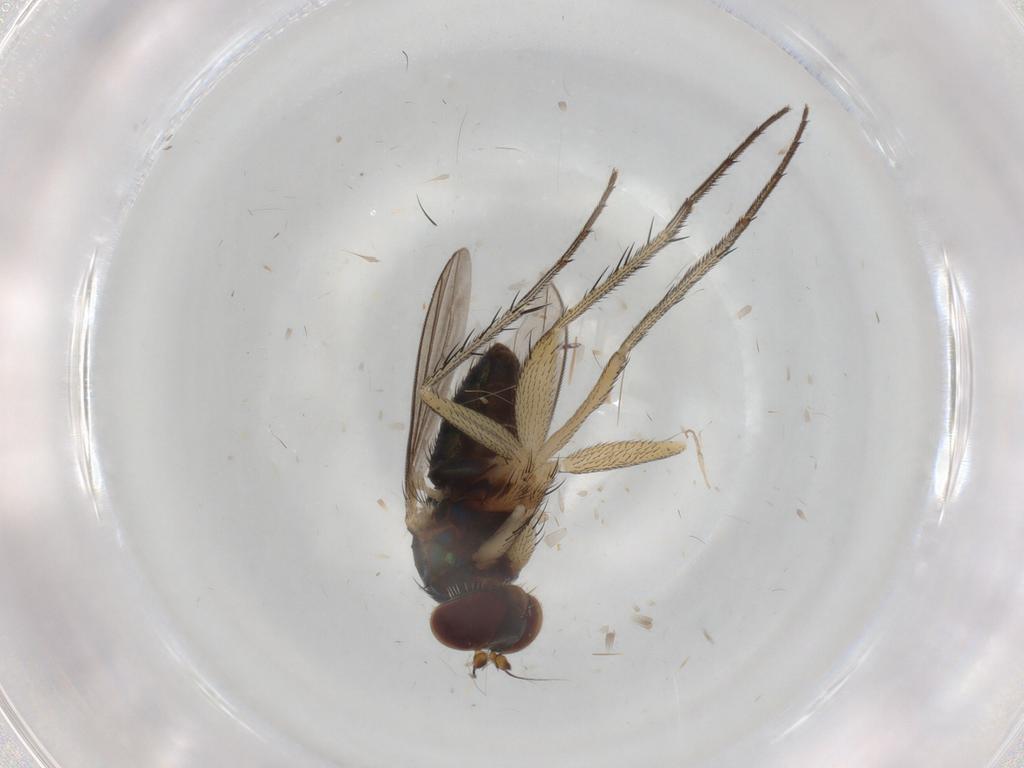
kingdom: Animalia
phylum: Arthropoda
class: Insecta
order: Diptera
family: Dolichopodidae
